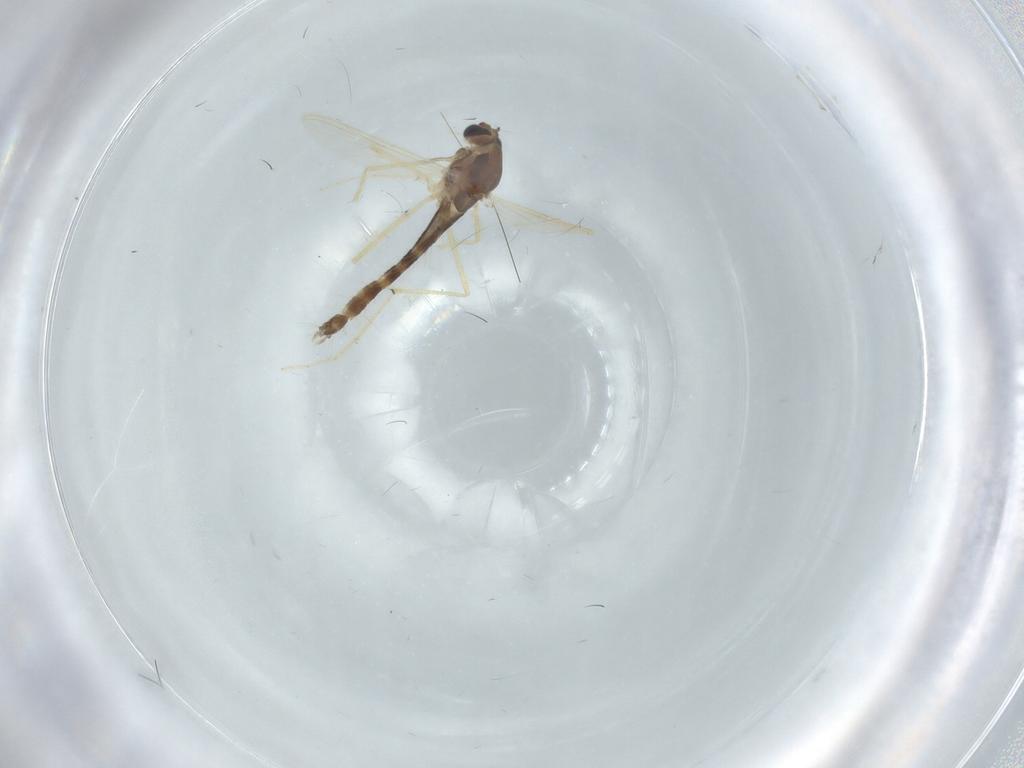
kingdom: Animalia
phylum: Arthropoda
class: Insecta
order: Diptera
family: Chironomidae
